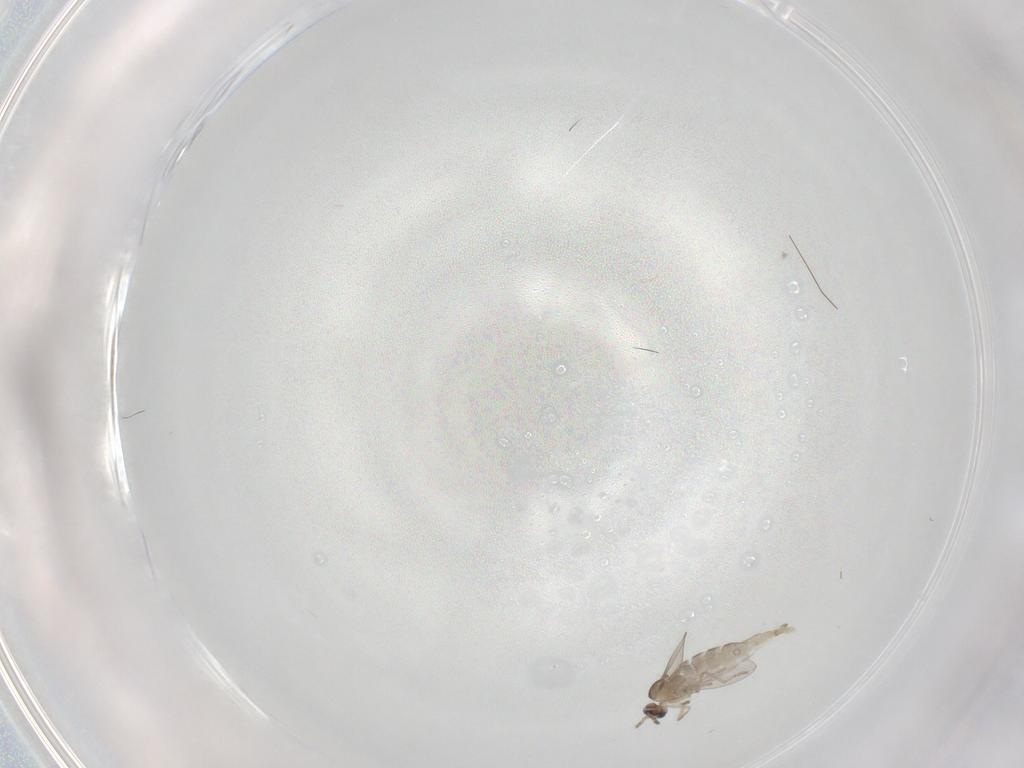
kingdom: Animalia
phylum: Arthropoda
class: Insecta
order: Diptera
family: Cecidomyiidae
